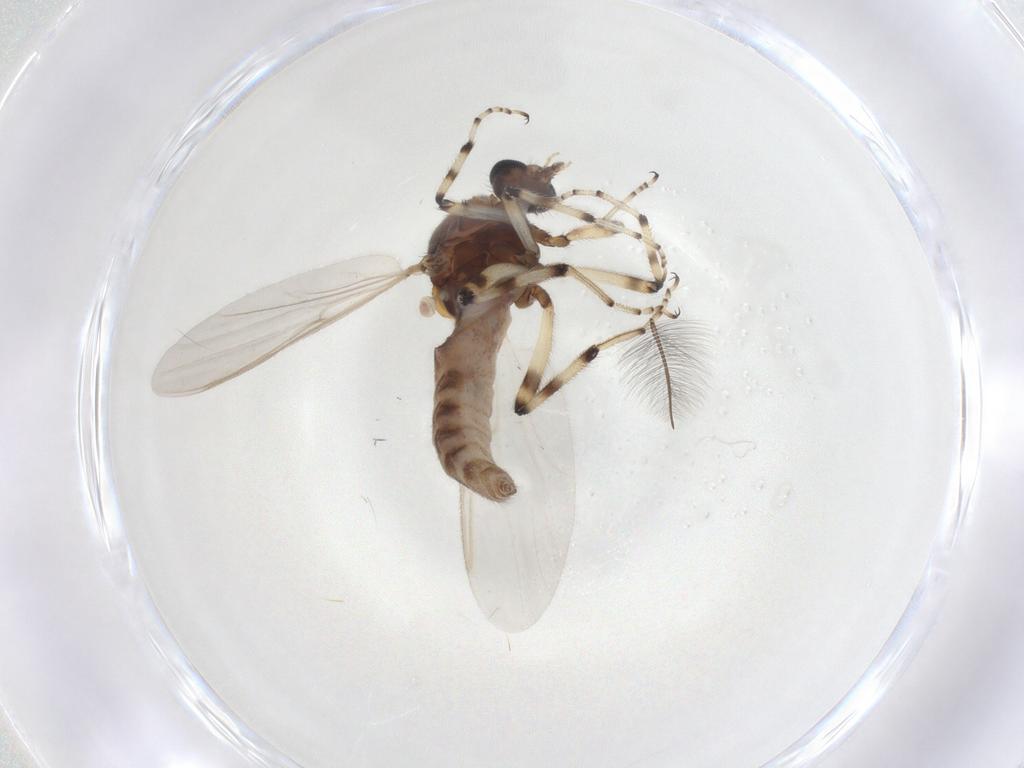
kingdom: Animalia
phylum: Arthropoda
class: Insecta
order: Diptera
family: Ceratopogonidae
